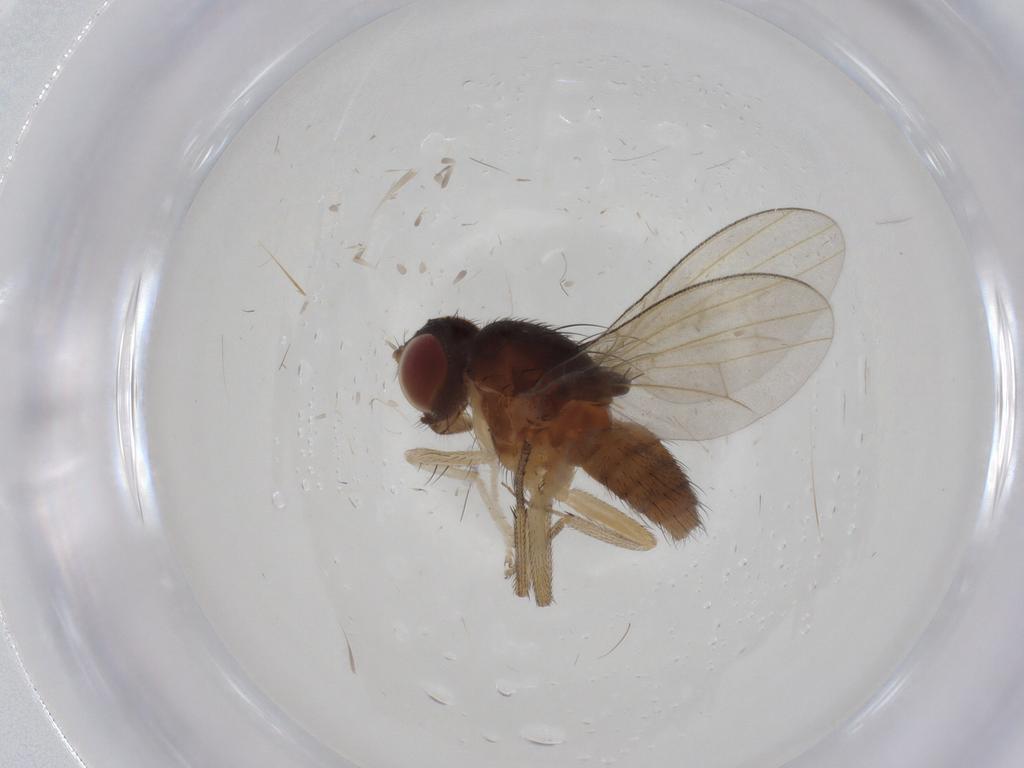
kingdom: Animalia
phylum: Arthropoda
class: Insecta
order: Diptera
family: Lauxaniidae
